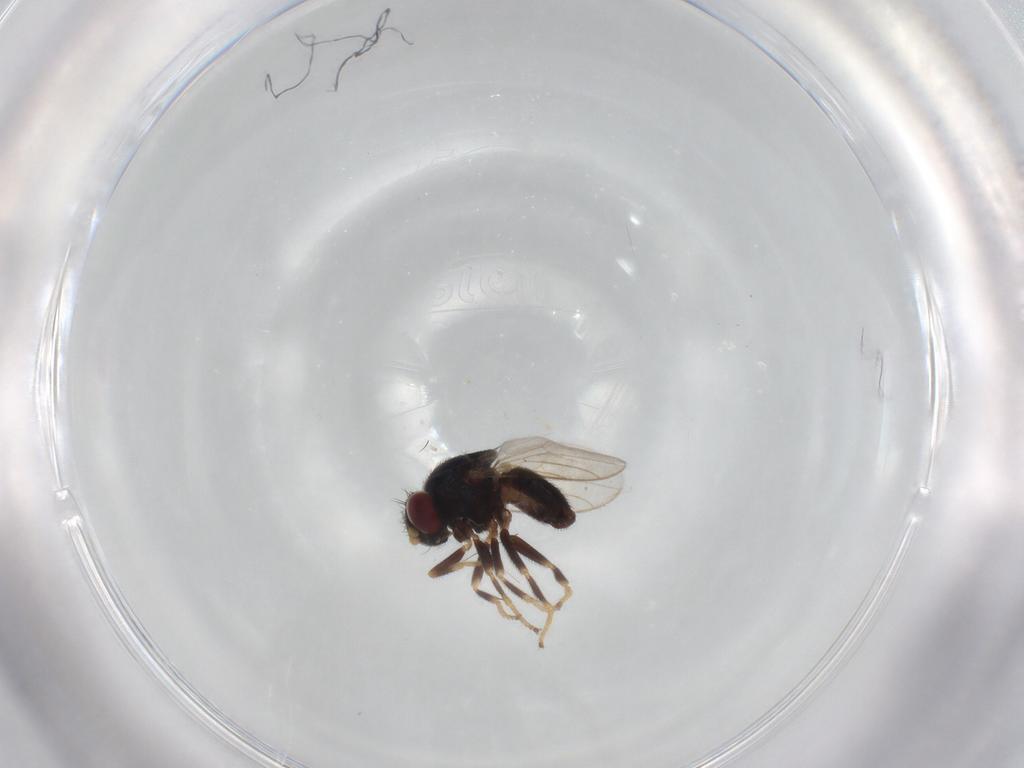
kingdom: Animalia
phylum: Arthropoda
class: Insecta
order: Diptera
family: Chloropidae
